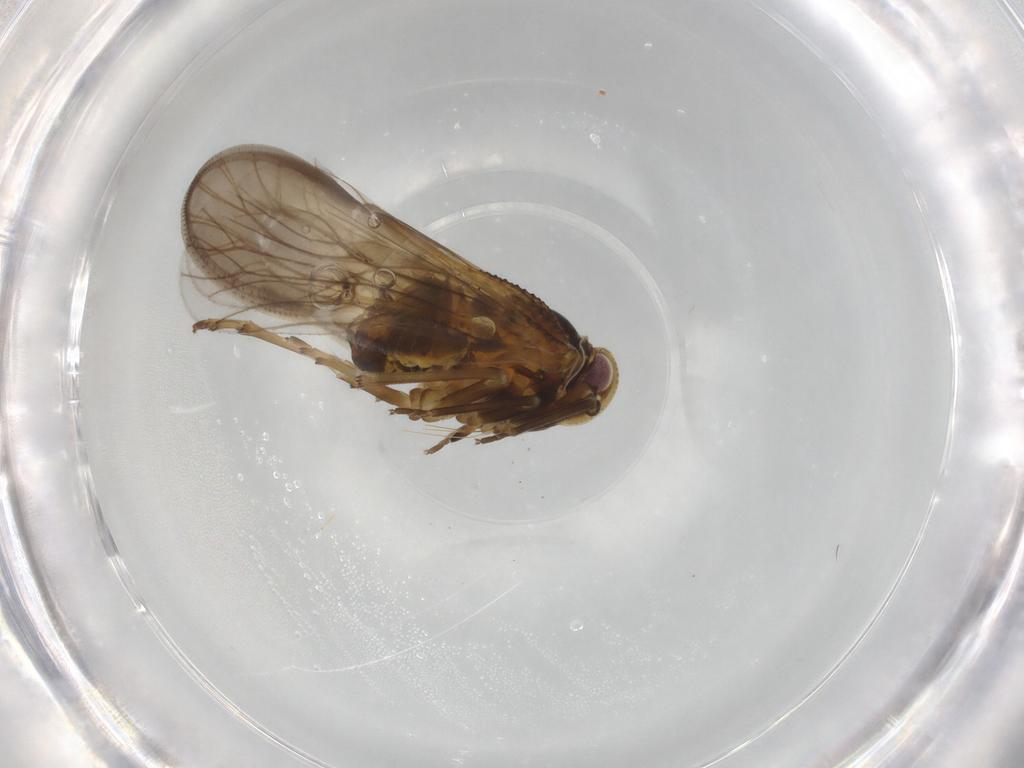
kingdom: Animalia
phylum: Arthropoda
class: Insecta
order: Hemiptera
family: Meenoplidae
